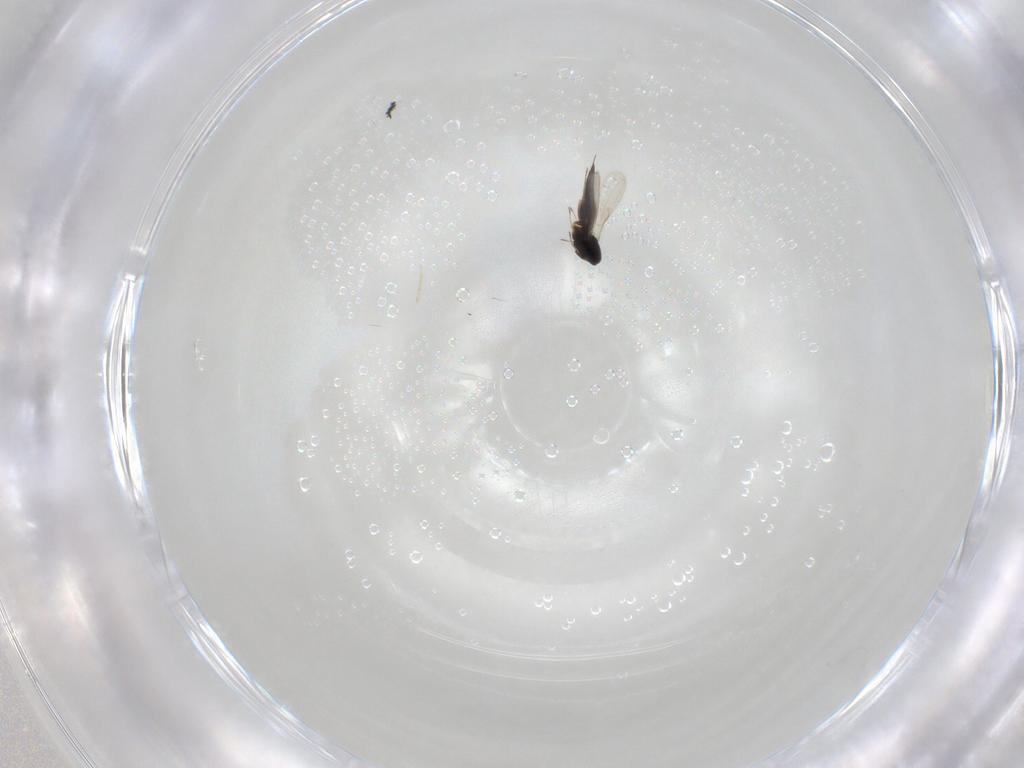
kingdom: Animalia
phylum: Arthropoda
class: Insecta
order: Hymenoptera
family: Scelionidae
